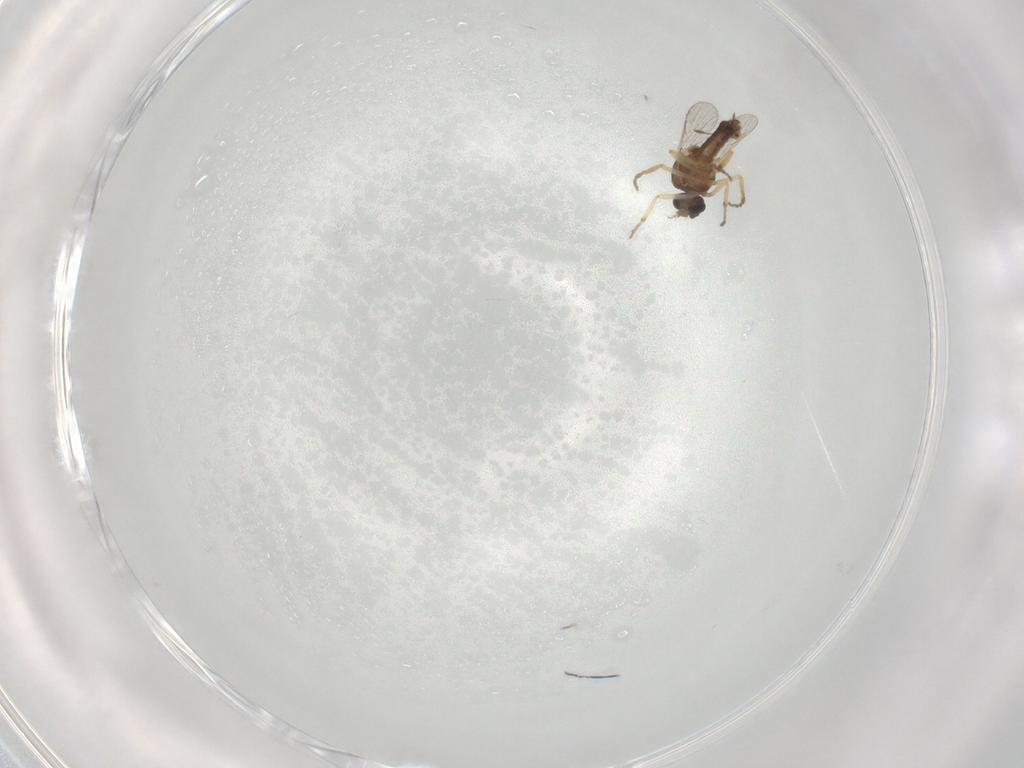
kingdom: Animalia
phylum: Arthropoda
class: Insecta
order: Diptera
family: Ceratopogonidae
